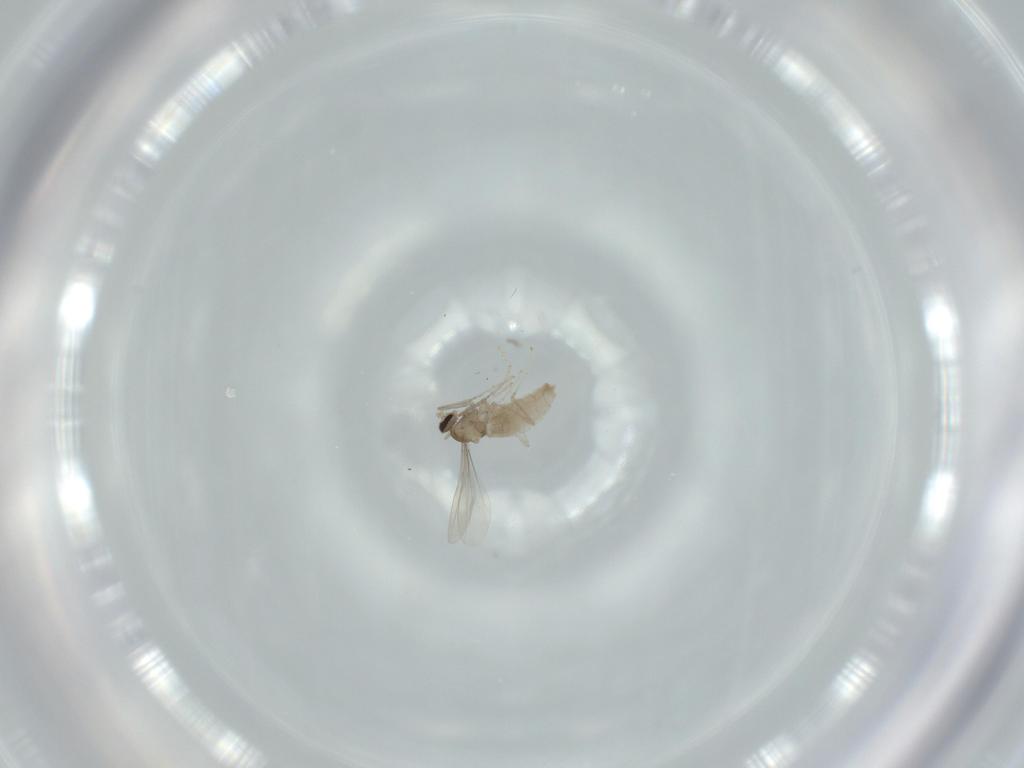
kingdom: Animalia
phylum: Arthropoda
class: Insecta
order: Diptera
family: Cecidomyiidae
